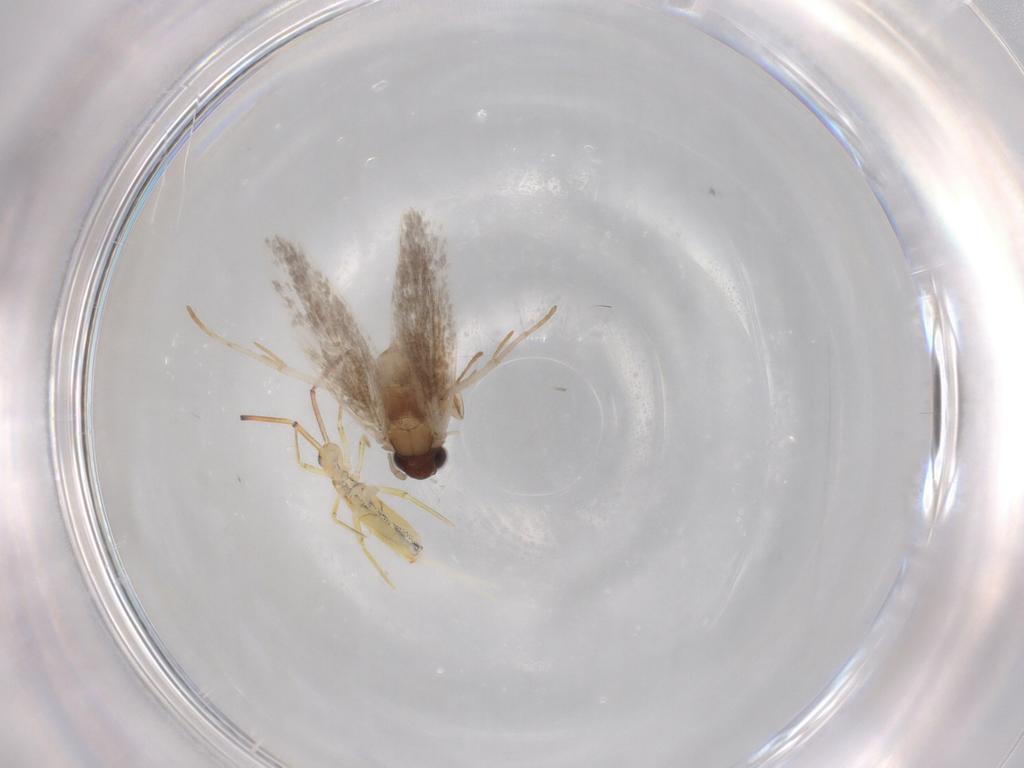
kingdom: Animalia
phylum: Arthropoda
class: Insecta
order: Lepidoptera
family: Tineidae
